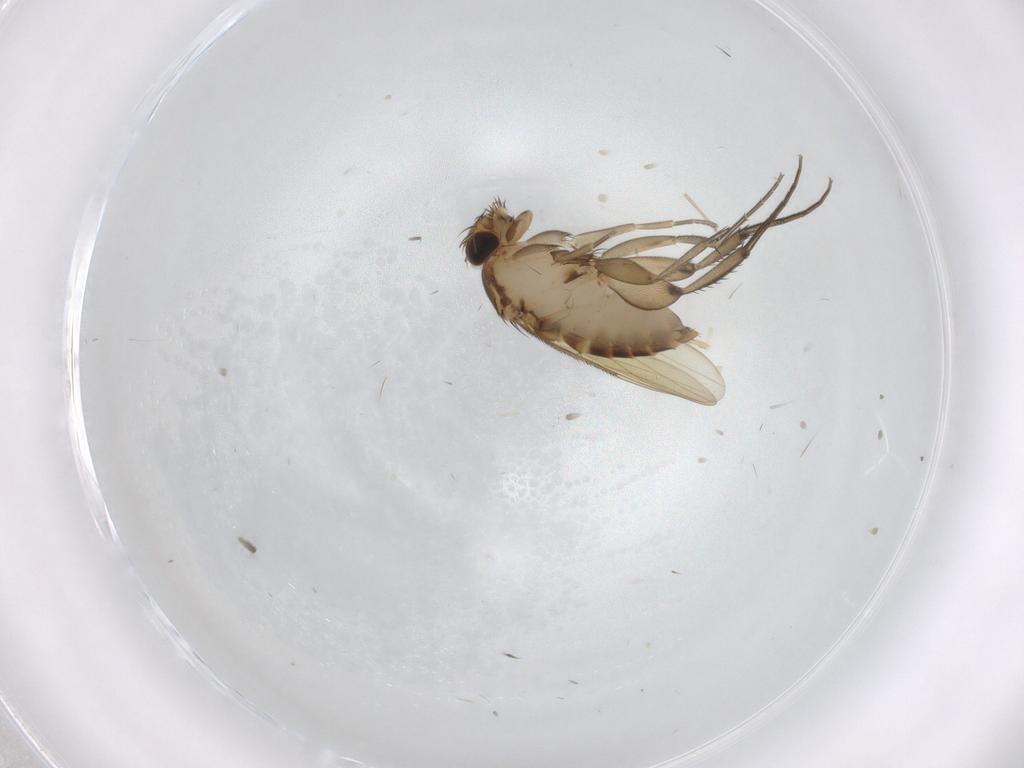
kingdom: Animalia
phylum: Arthropoda
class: Insecta
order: Diptera
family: Phoridae
